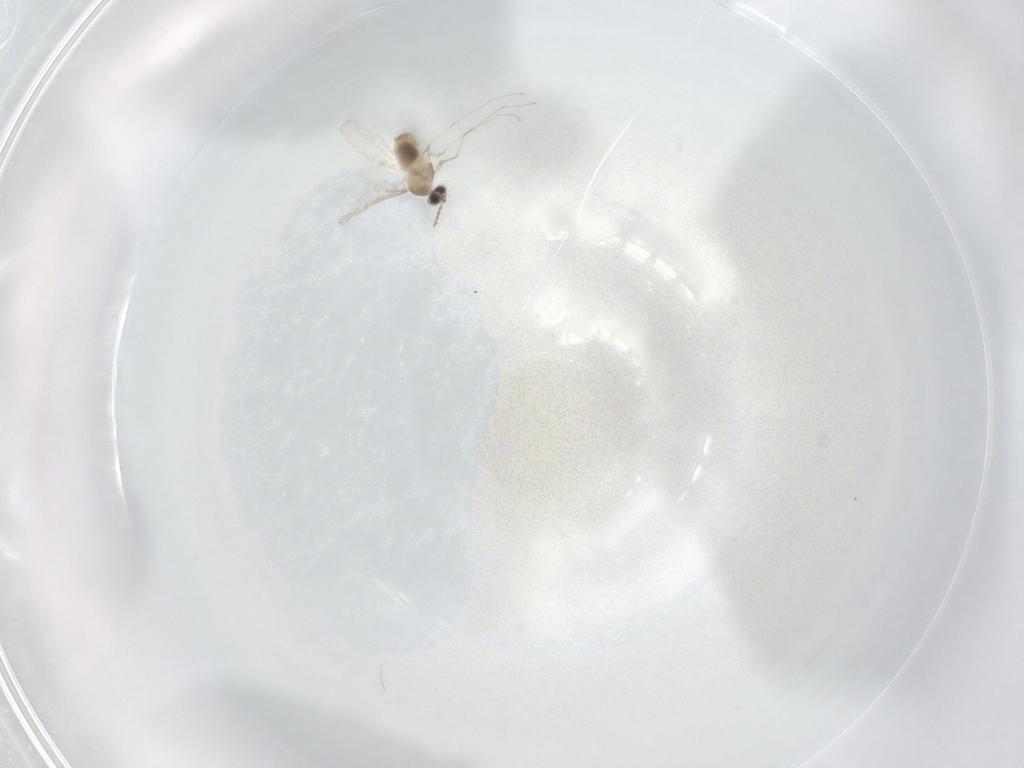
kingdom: Animalia
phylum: Arthropoda
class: Insecta
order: Diptera
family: Cecidomyiidae
